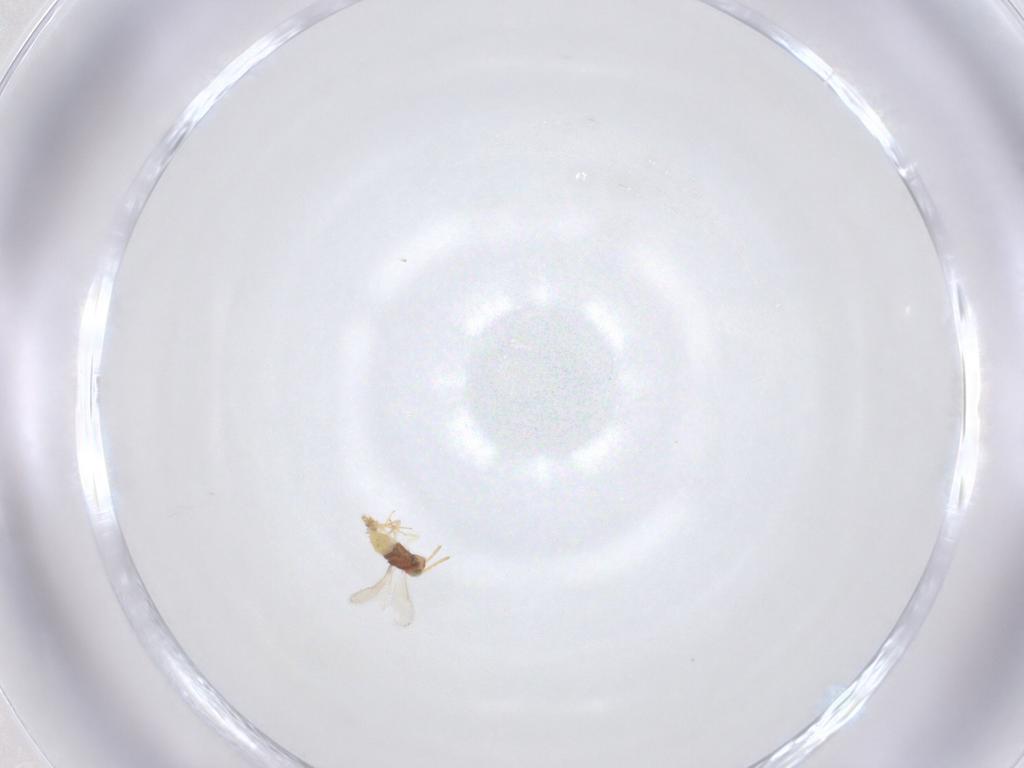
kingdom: Animalia
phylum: Arthropoda
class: Insecta
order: Hymenoptera
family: Aphelinidae
